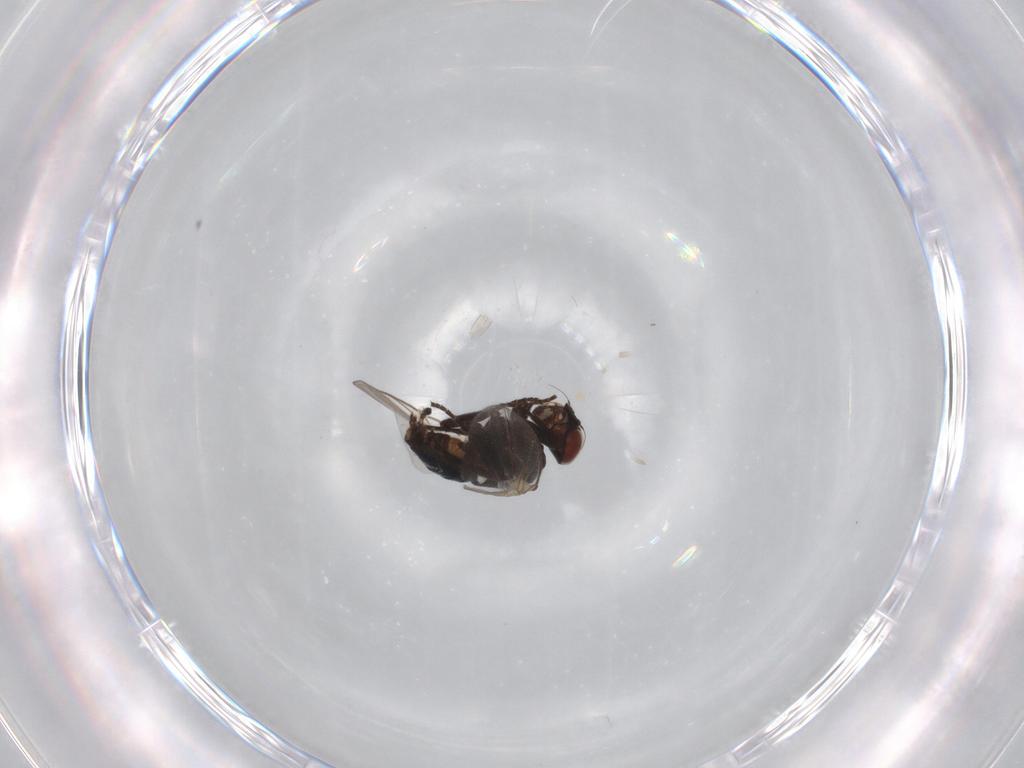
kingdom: Animalia
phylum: Arthropoda
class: Insecta
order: Diptera
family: Agromyzidae
